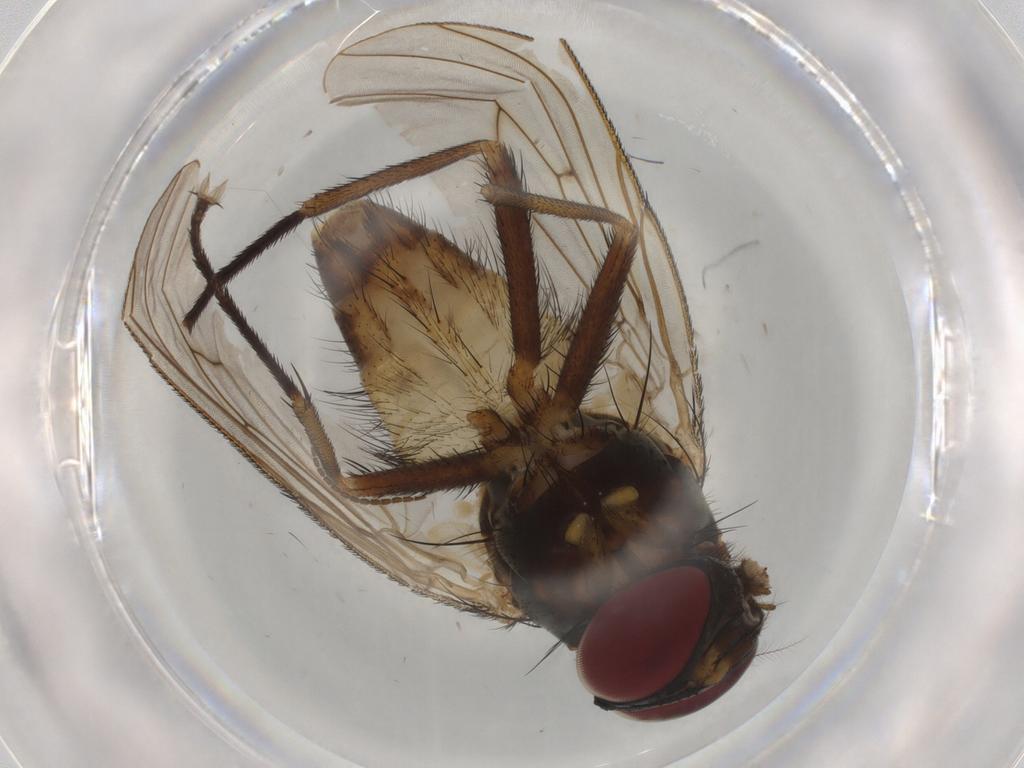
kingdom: Animalia
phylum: Arthropoda
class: Insecta
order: Diptera
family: Muscidae
